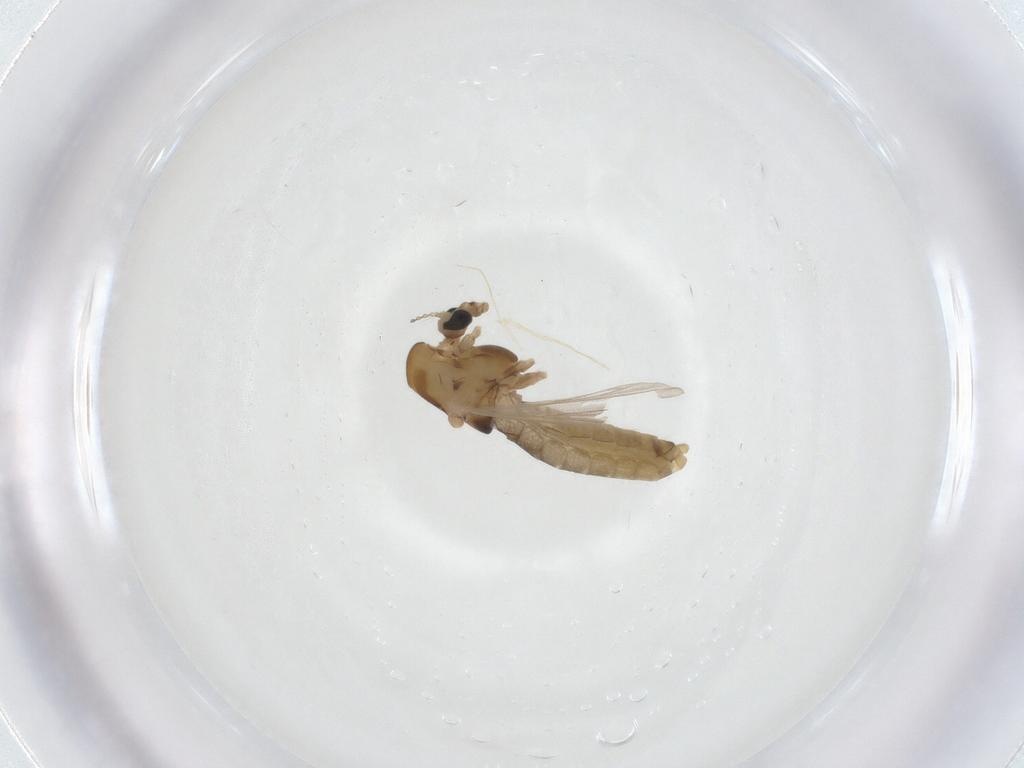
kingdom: Animalia
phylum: Arthropoda
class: Insecta
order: Diptera
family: Chironomidae
